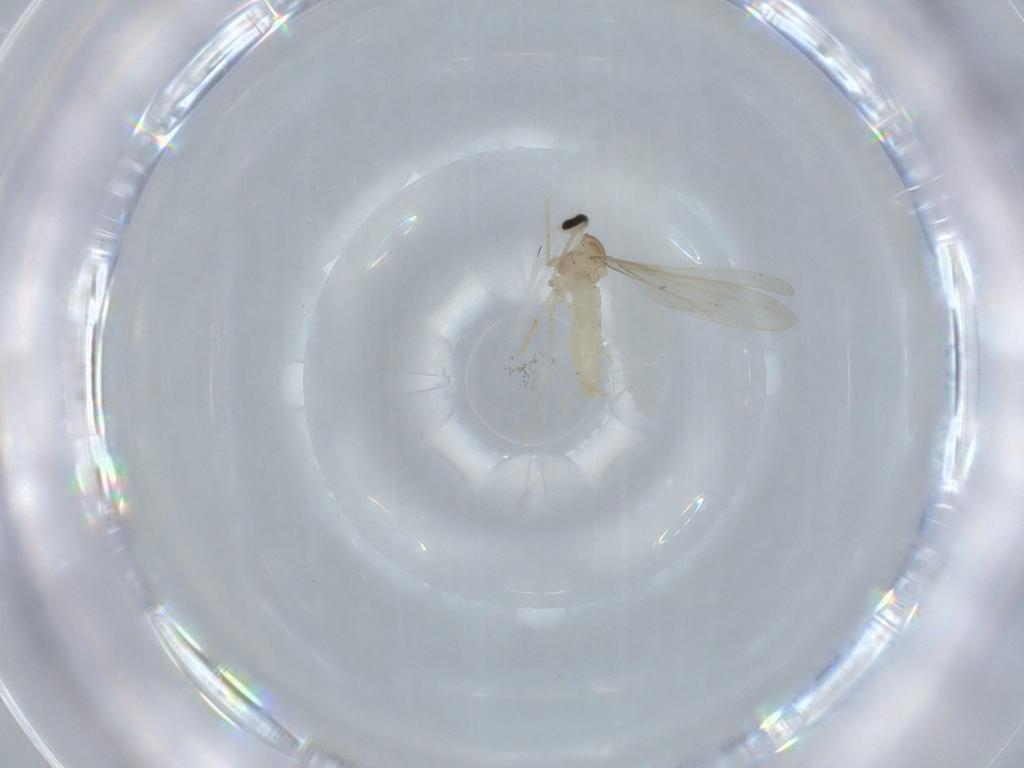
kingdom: Animalia
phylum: Arthropoda
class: Insecta
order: Diptera
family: Cecidomyiidae
